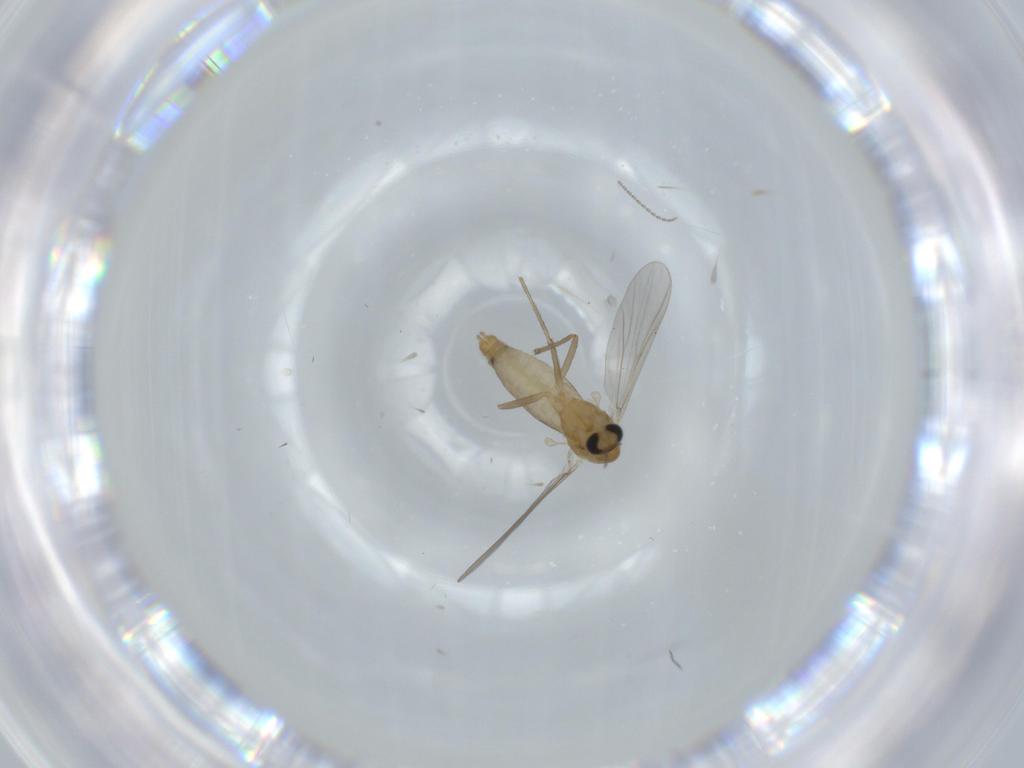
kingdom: Animalia
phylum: Arthropoda
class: Insecta
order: Diptera
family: Chironomidae
